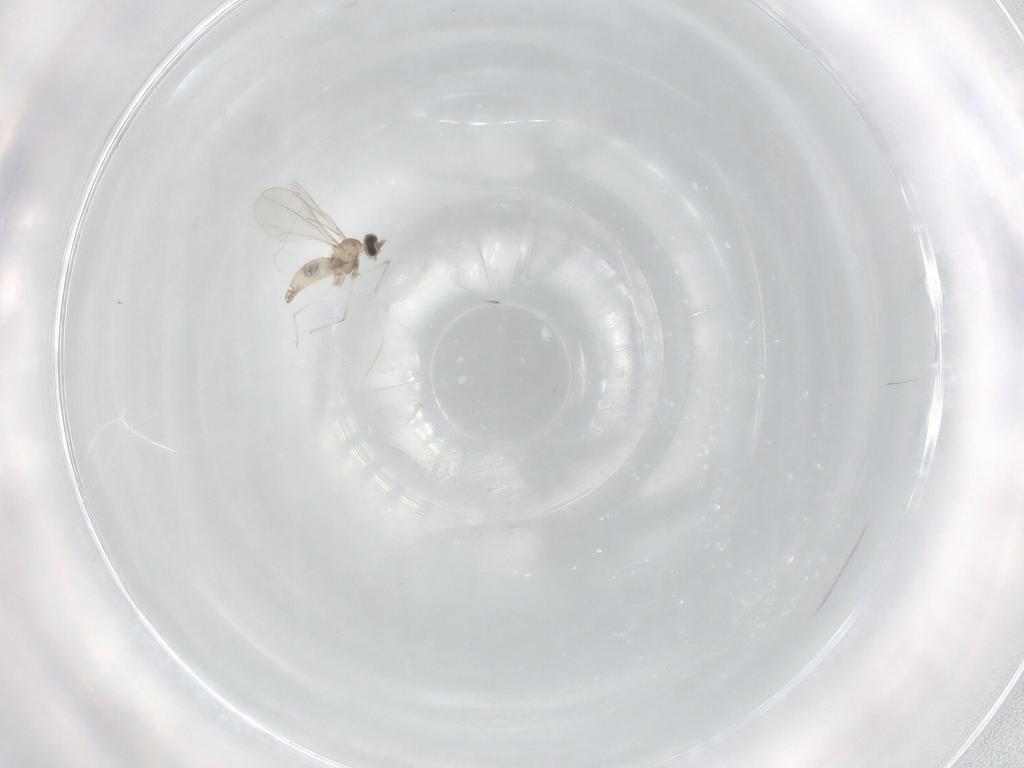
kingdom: Animalia
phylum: Arthropoda
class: Insecta
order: Diptera
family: Cecidomyiidae
